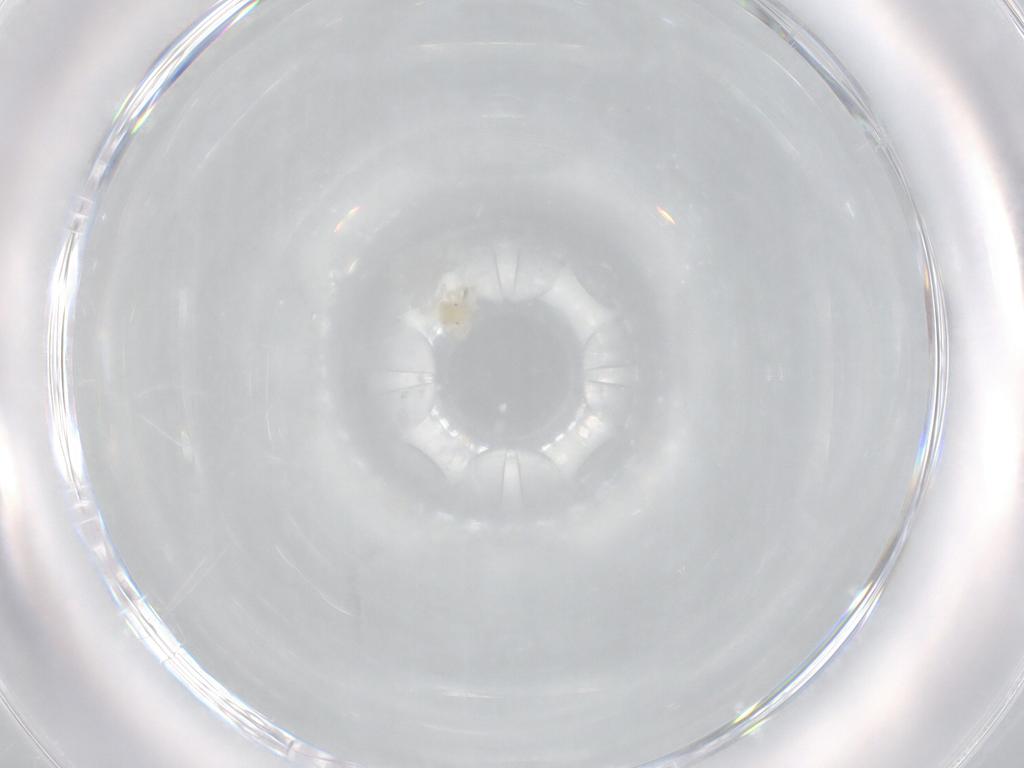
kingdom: Animalia
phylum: Arthropoda
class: Arachnida
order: Trombidiformes
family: Anystidae
